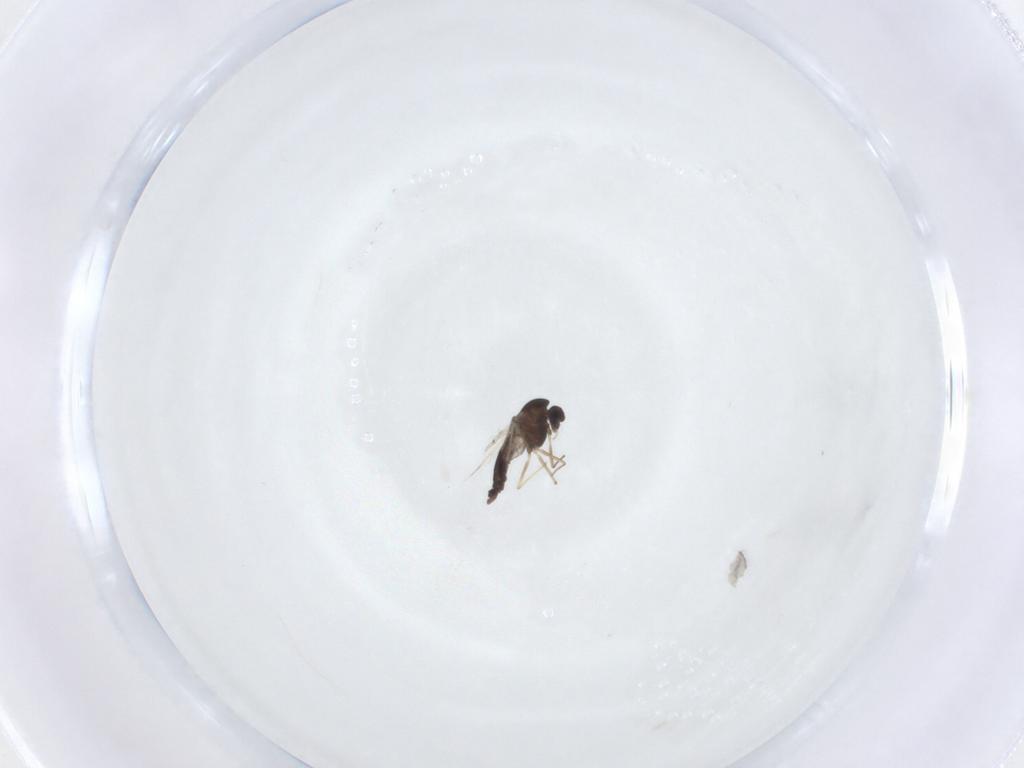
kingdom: Animalia
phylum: Arthropoda
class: Insecta
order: Diptera
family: Chironomidae
